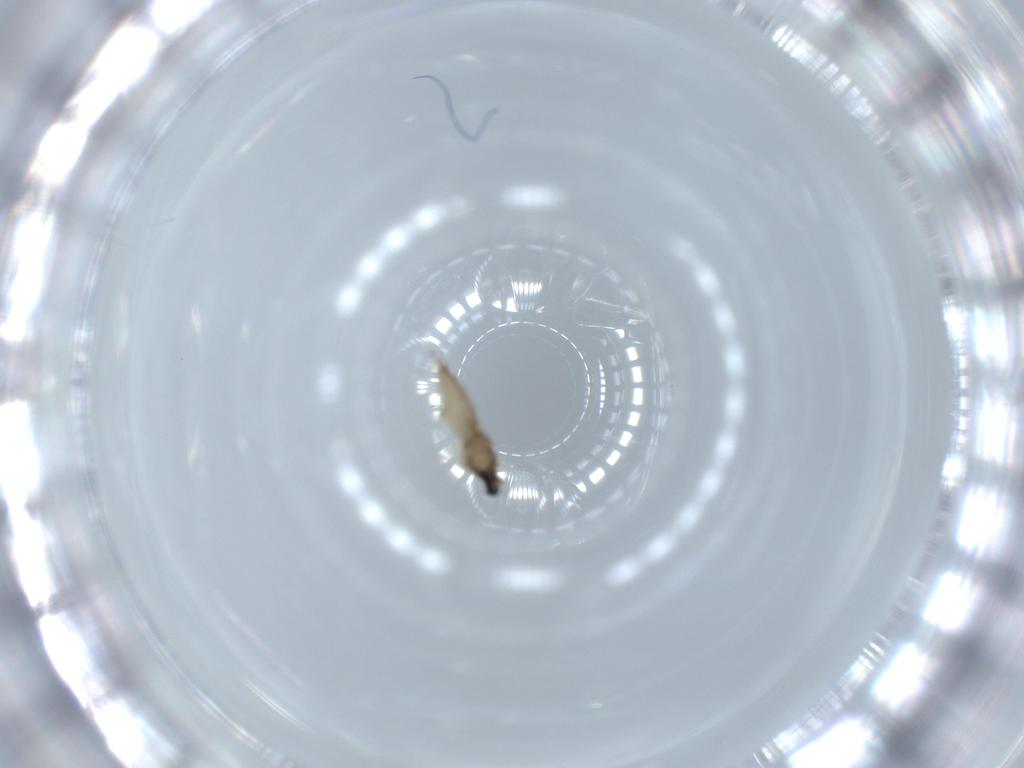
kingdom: Animalia
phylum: Arthropoda
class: Insecta
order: Diptera
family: Cecidomyiidae
